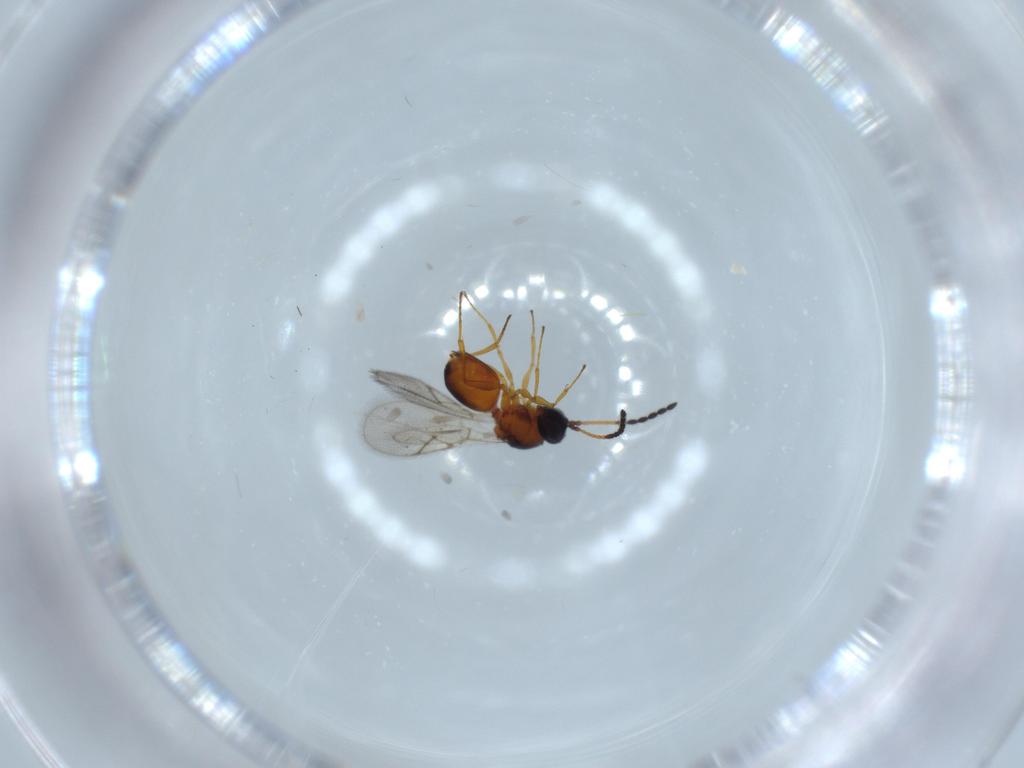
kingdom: Animalia
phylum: Arthropoda
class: Insecta
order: Hymenoptera
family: Figitidae
